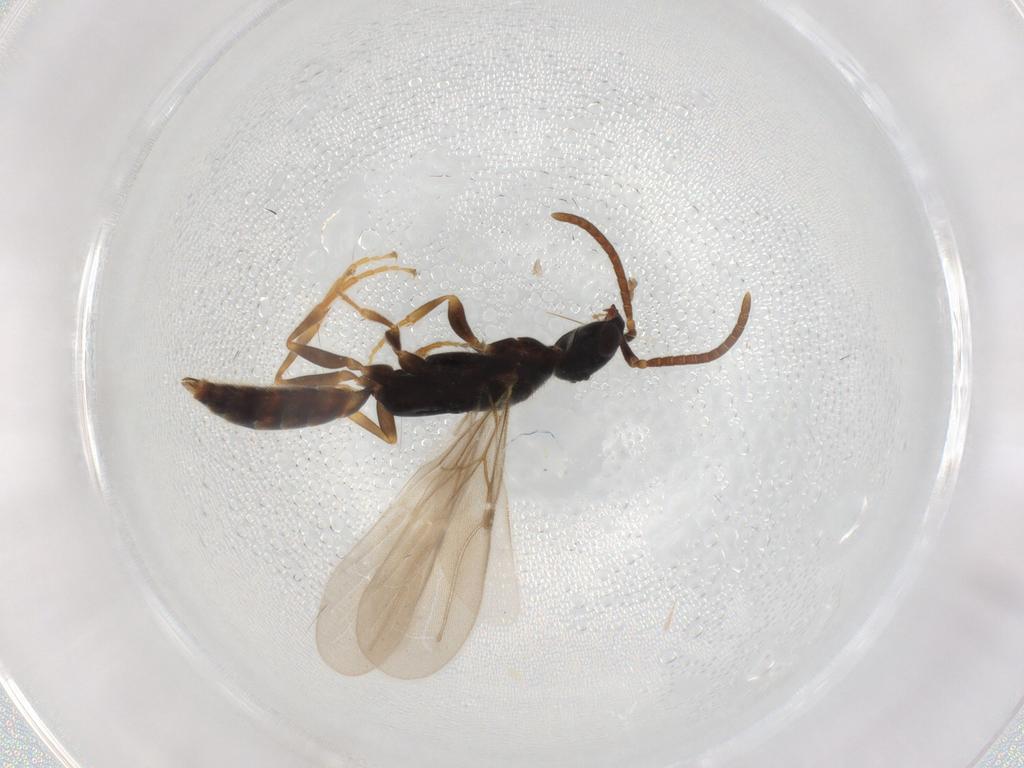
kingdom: Animalia
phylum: Arthropoda
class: Insecta
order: Hymenoptera
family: Bethylidae
